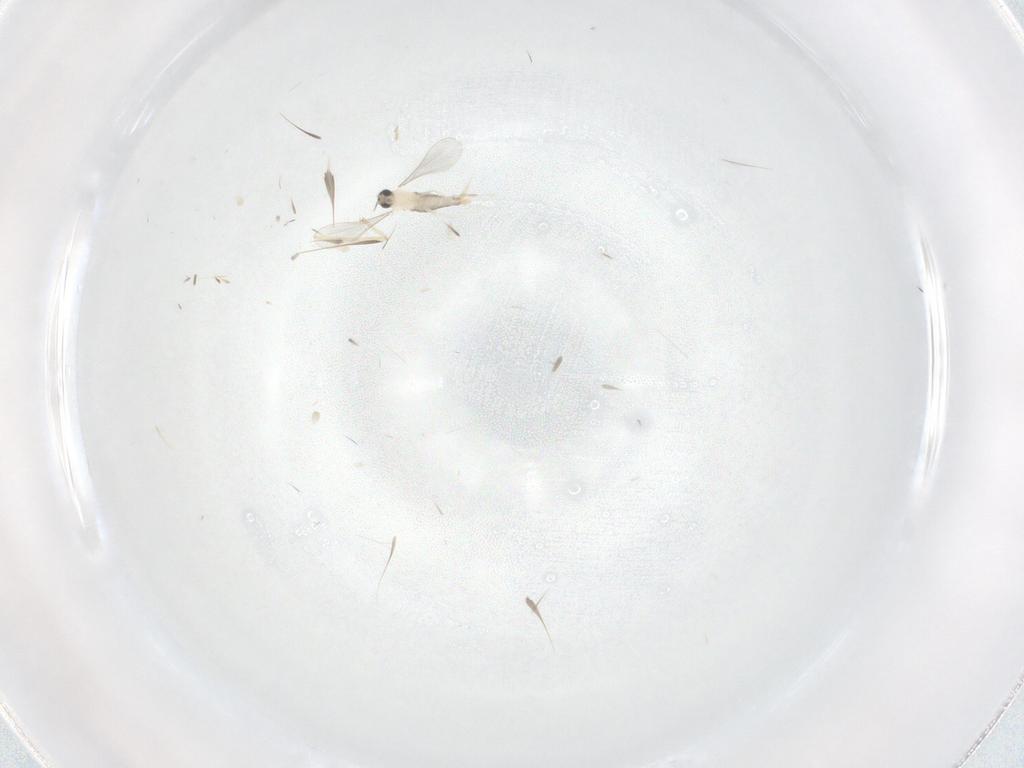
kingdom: Animalia
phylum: Arthropoda
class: Insecta
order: Diptera
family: Chironomidae
